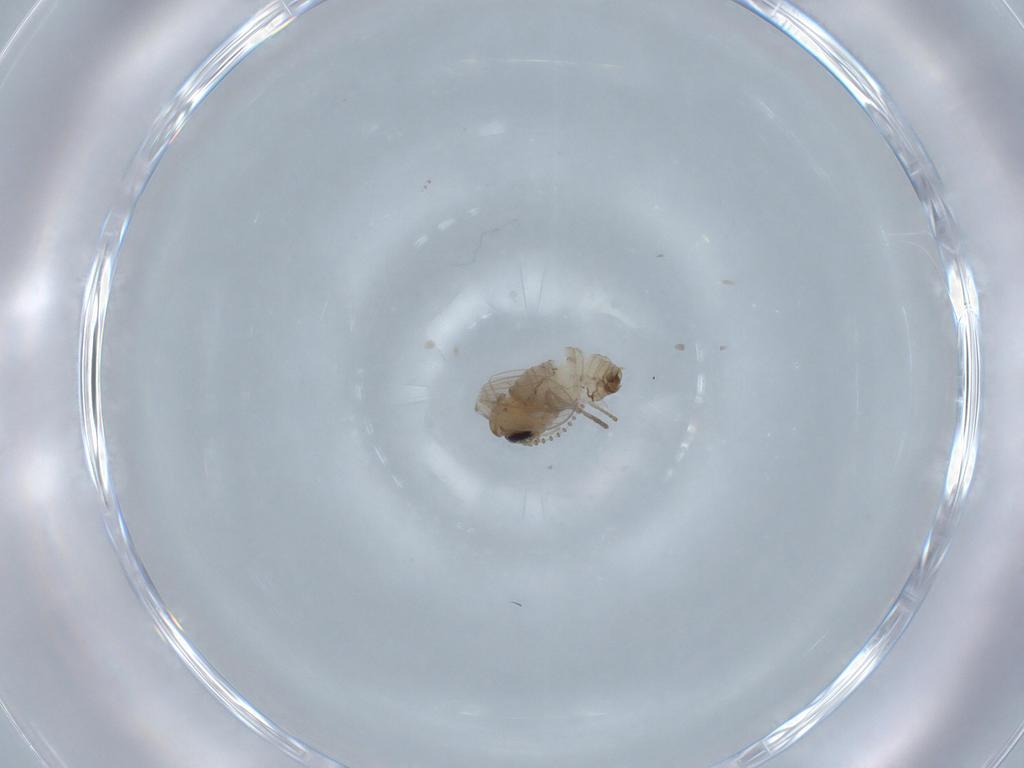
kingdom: Animalia
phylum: Arthropoda
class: Insecta
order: Diptera
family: Psychodidae
